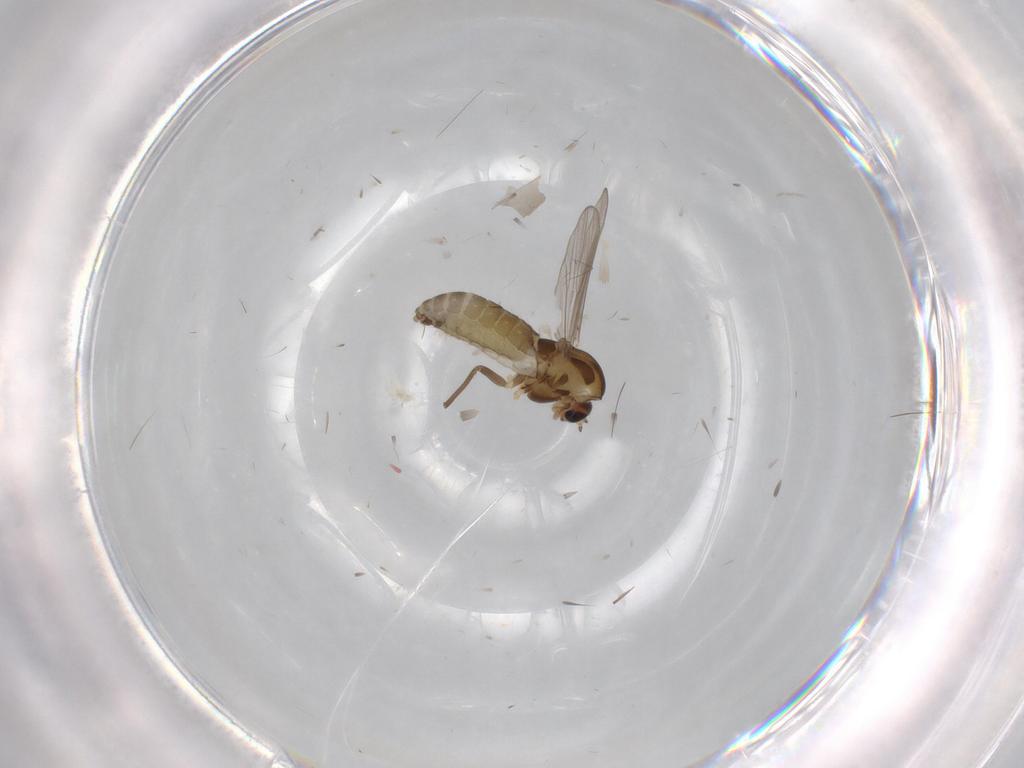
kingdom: Animalia
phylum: Arthropoda
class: Insecta
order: Diptera
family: Chironomidae
